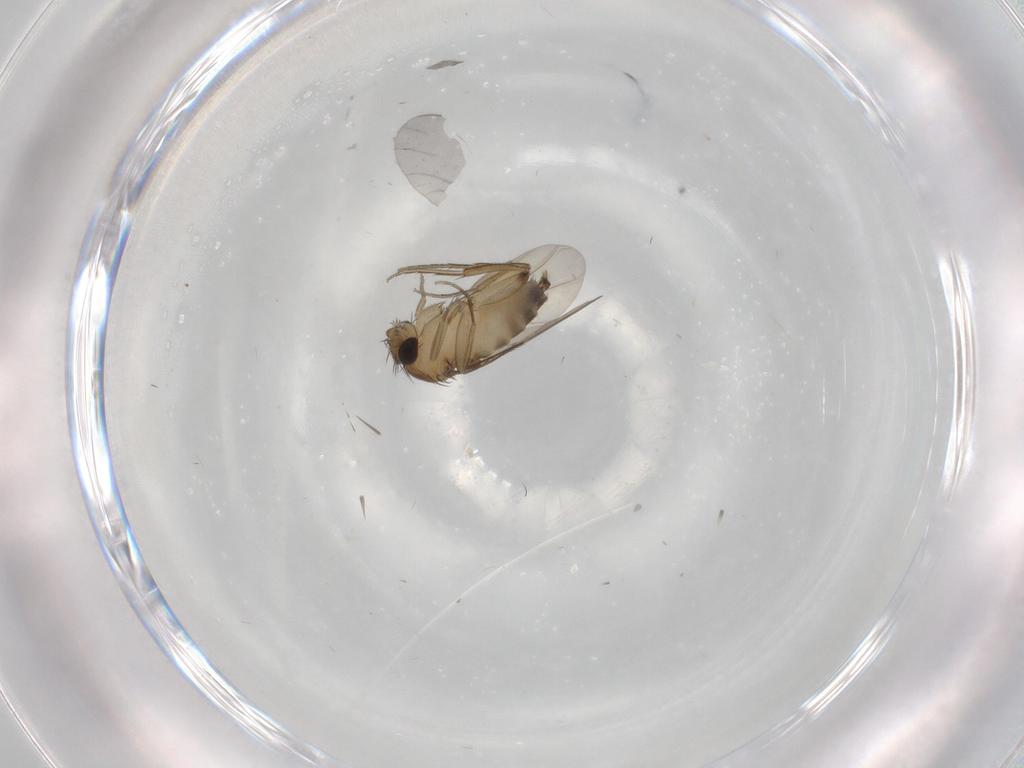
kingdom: Animalia
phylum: Arthropoda
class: Insecta
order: Diptera
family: Phoridae
